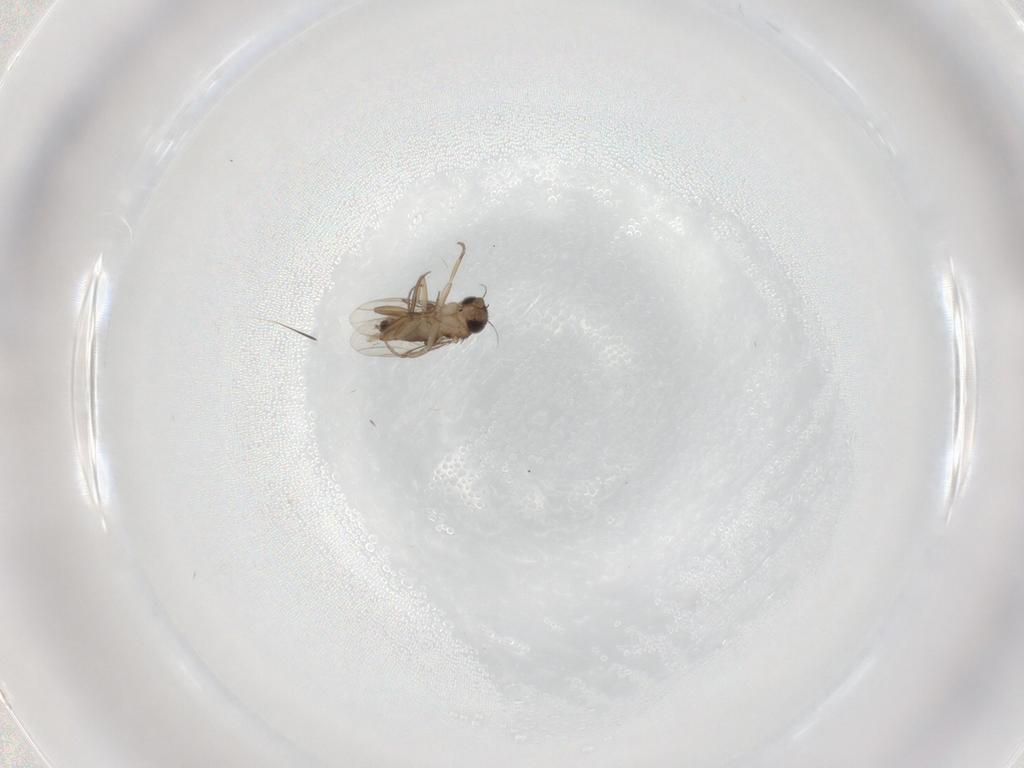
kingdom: Animalia
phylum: Arthropoda
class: Insecta
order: Diptera
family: Phoridae
